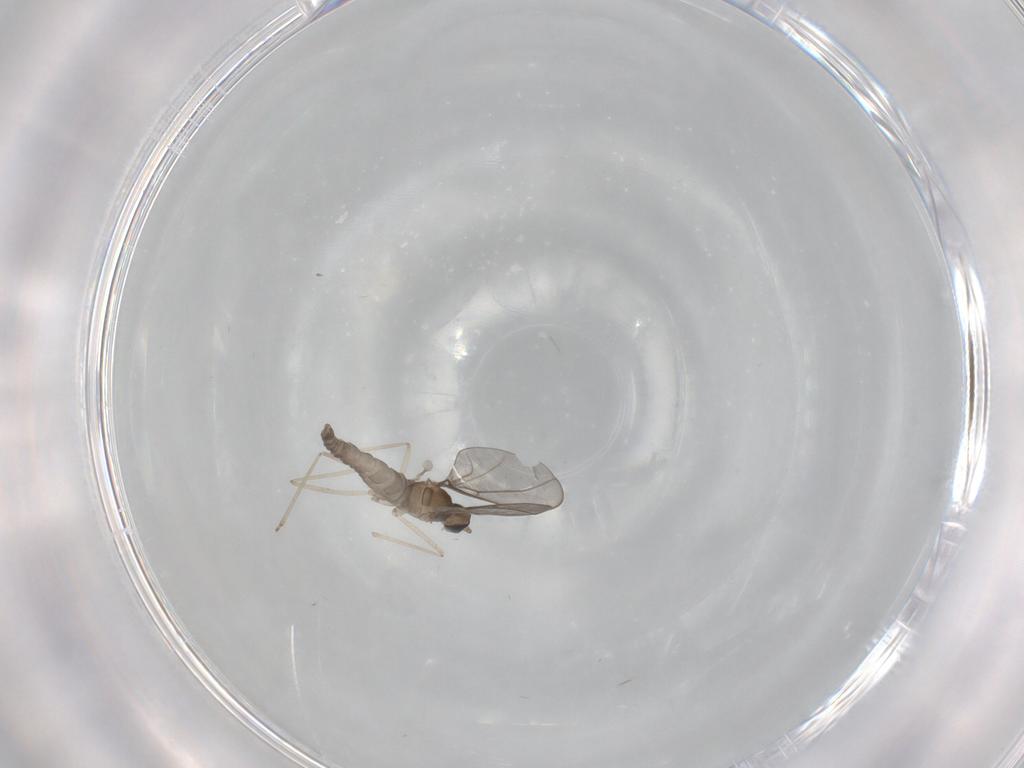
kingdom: Animalia
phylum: Arthropoda
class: Insecta
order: Diptera
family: Cecidomyiidae
